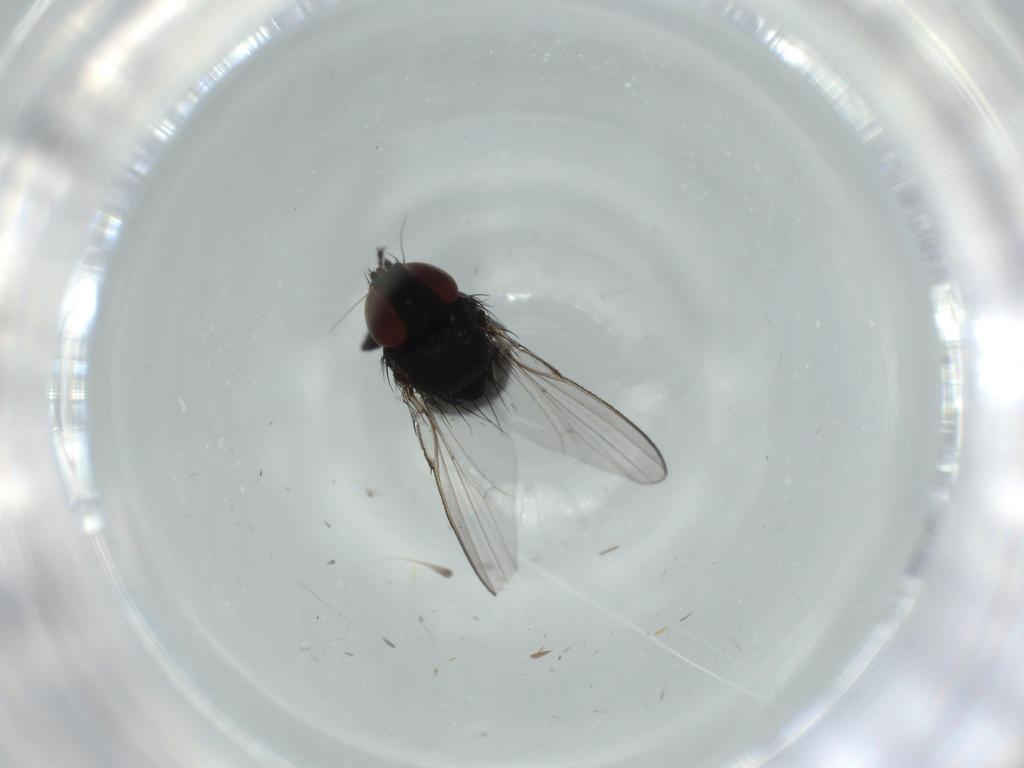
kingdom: Animalia
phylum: Arthropoda
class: Insecta
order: Diptera
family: Milichiidae
